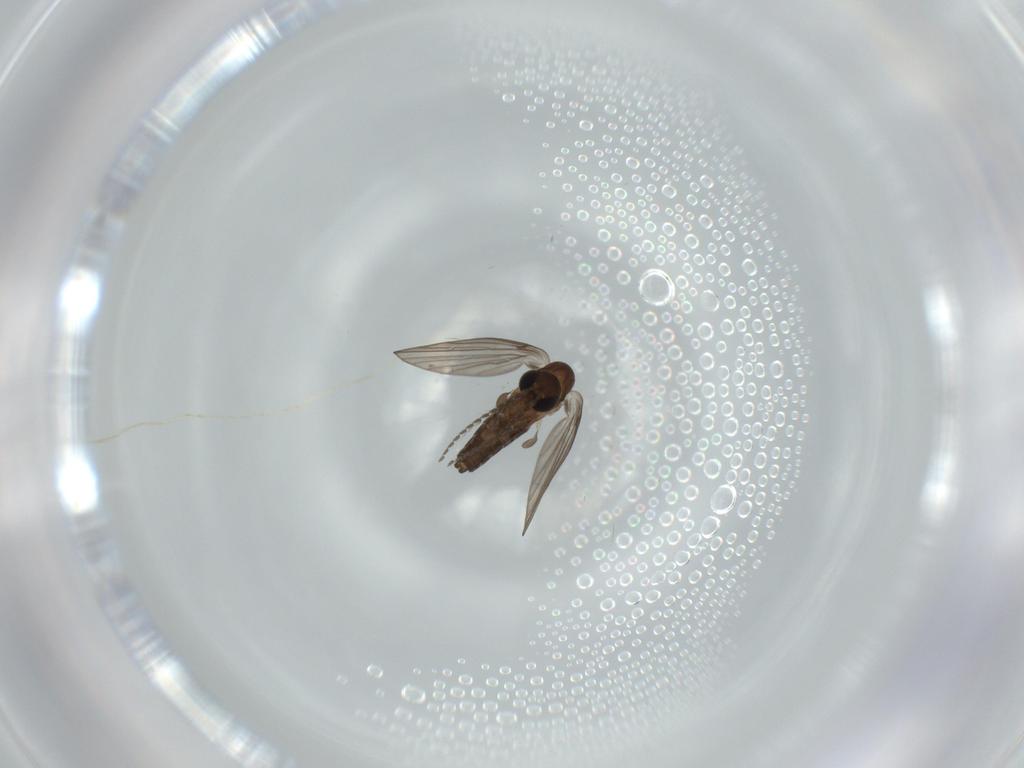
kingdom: Animalia
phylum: Arthropoda
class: Insecta
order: Diptera
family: Psychodidae
